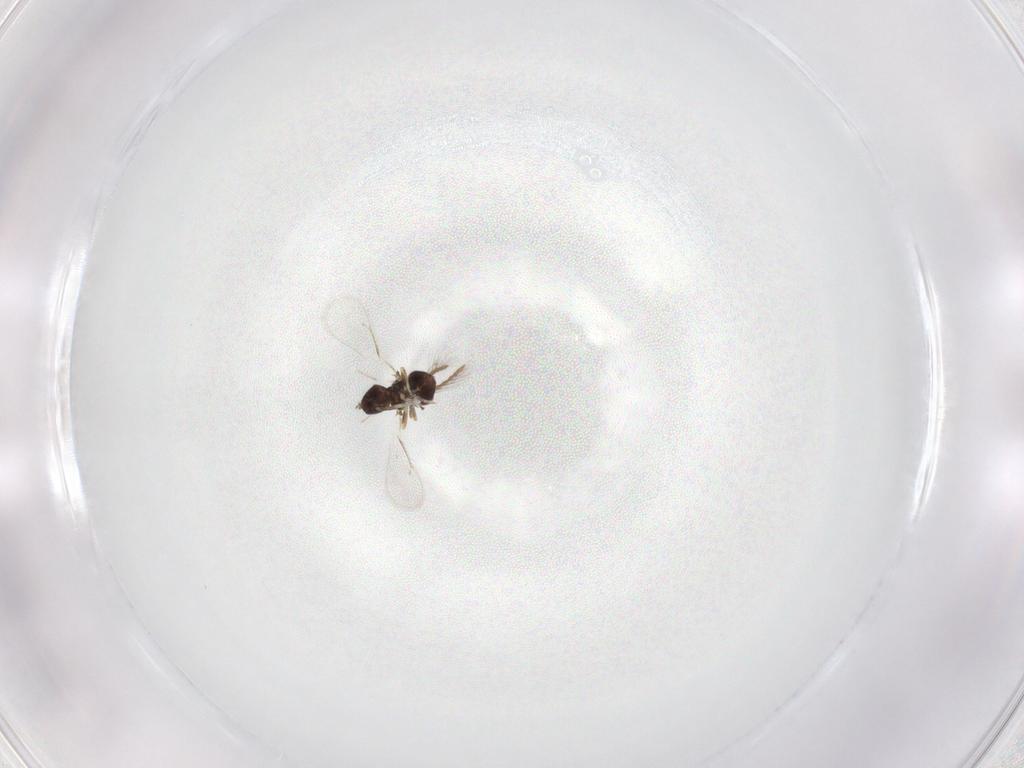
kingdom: Animalia
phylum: Arthropoda
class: Insecta
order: Hymenoptera
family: Eulophidae
